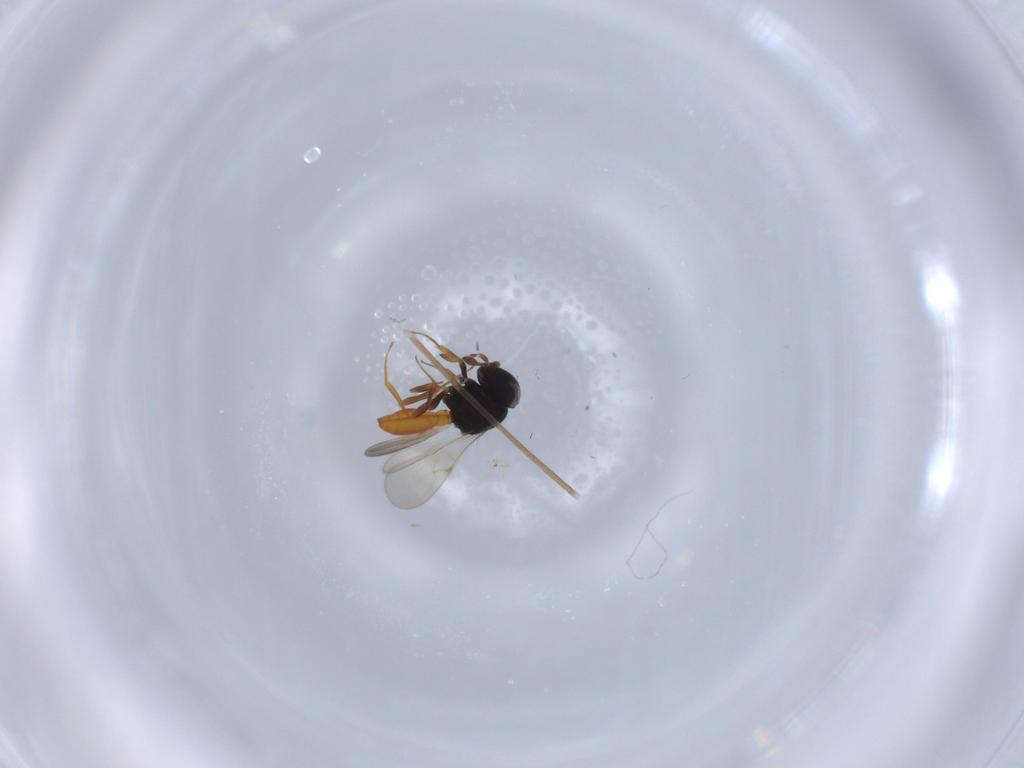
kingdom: Animalia
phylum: Arthropoda
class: Insecta
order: Hymenoptera
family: Scelionidae
